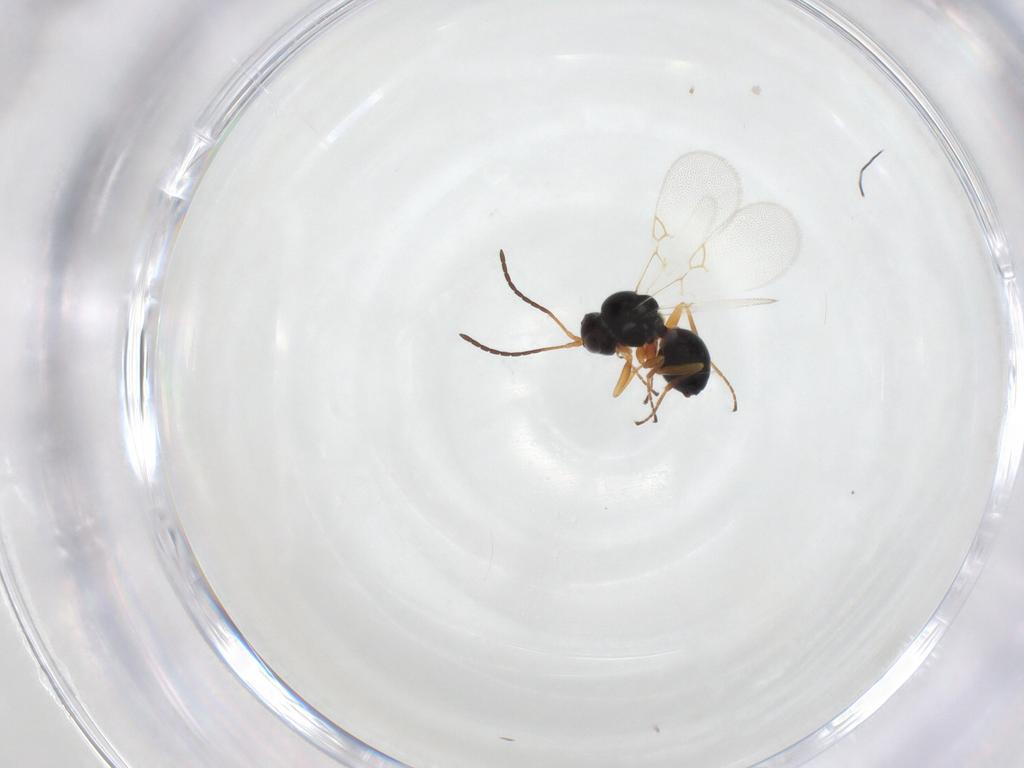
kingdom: Animalia
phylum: Arthropoda
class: Insecta
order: Hymenoptera
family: Figitidae
